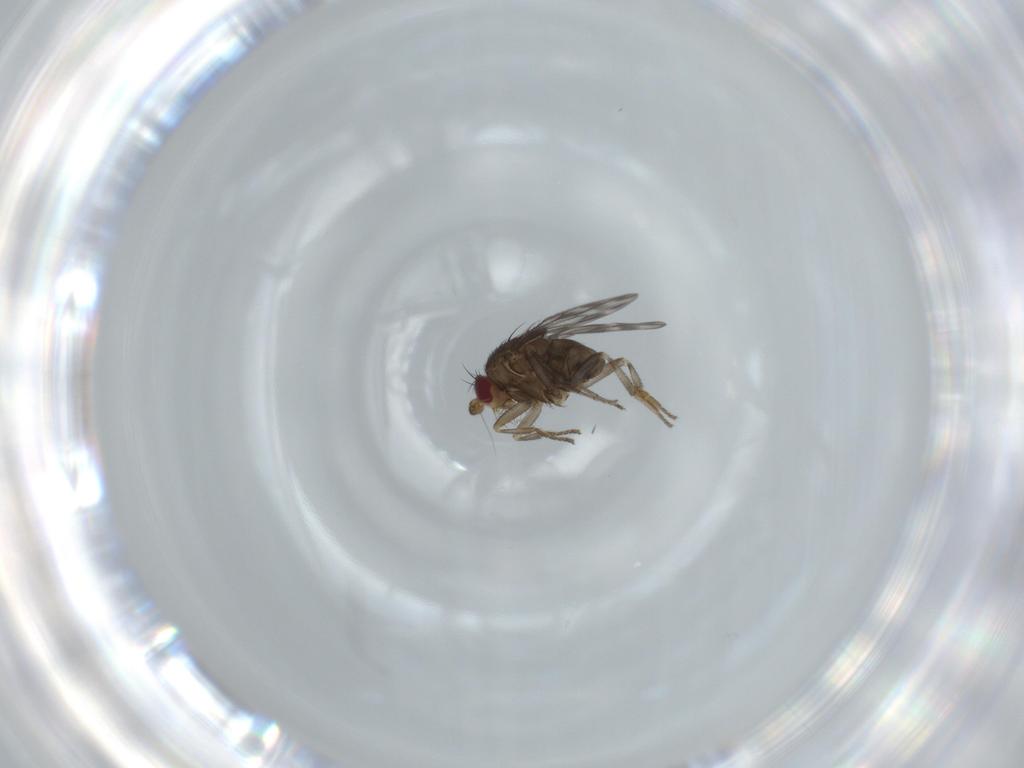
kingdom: Animalia
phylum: Arthropoda
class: Insecta
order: Diptera
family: Sphaeroceridae
